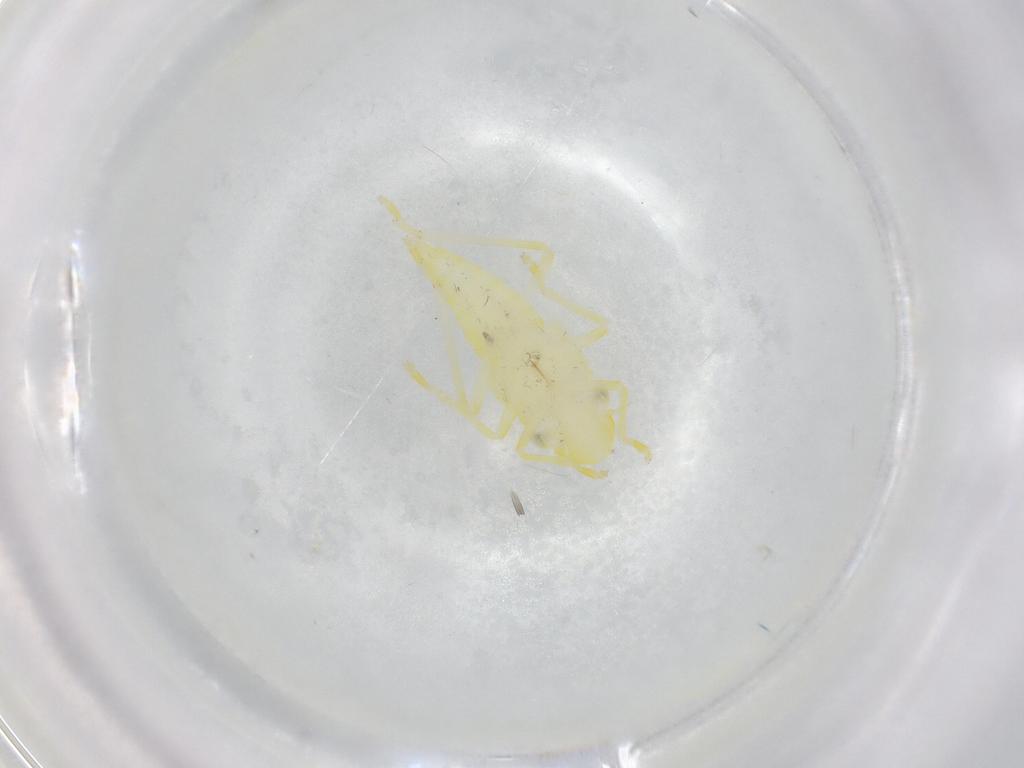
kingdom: Animalia
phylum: Arthropoda
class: Insecta
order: Hemiptera
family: Cicadellidae
